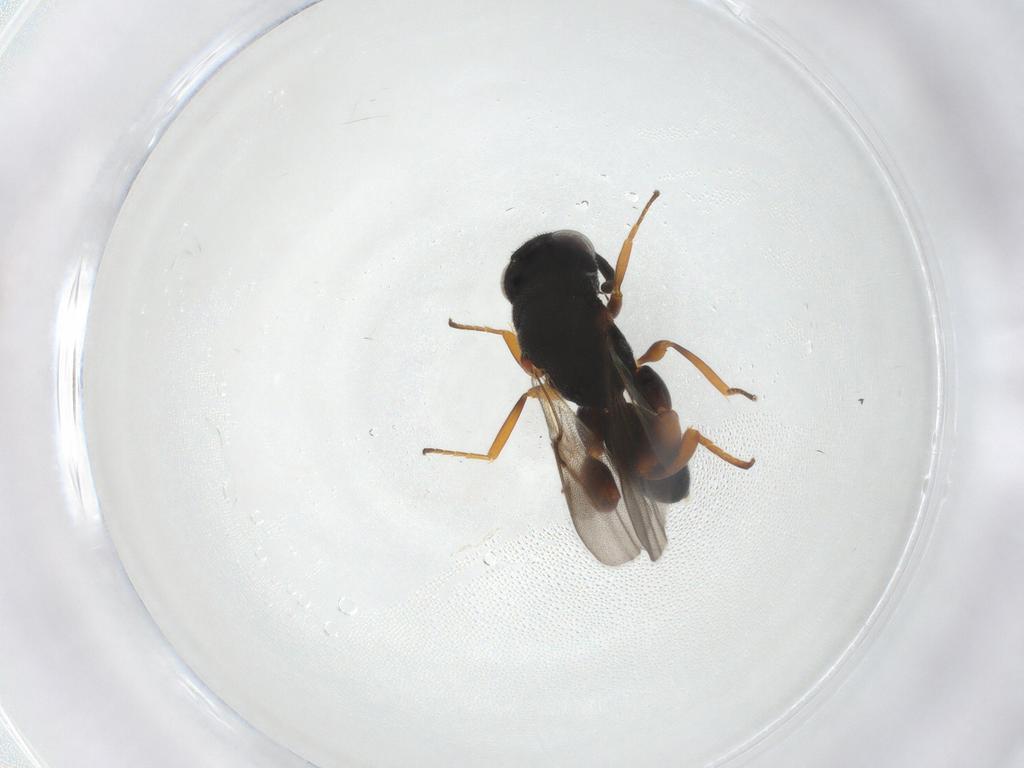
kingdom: Animalia
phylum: Arthropoda
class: Insecta
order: Hymenoptera
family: Chalcididae
